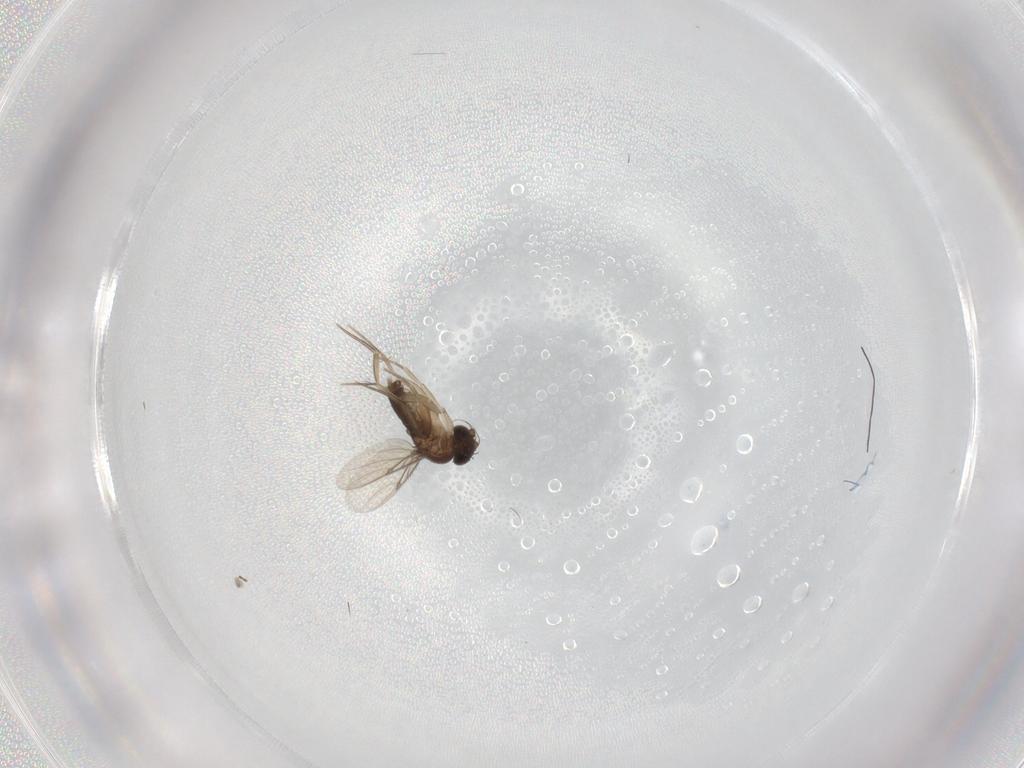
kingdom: Animalia
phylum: Arthropoda
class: Insecta
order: Diptera
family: Phoridae
